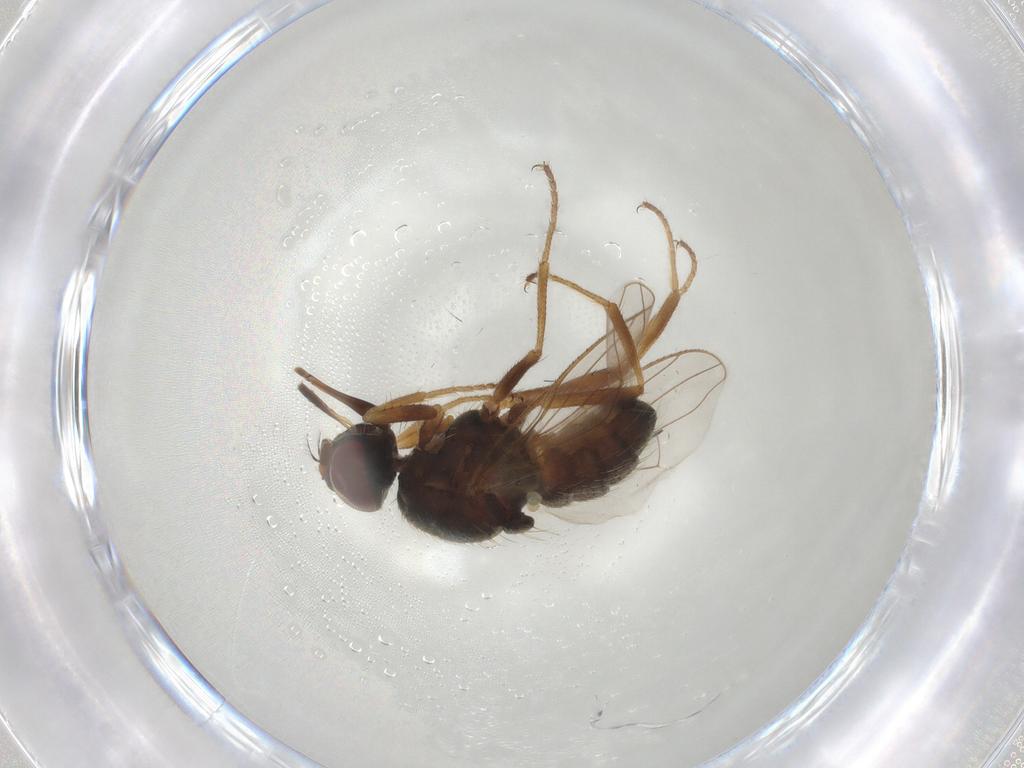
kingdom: Animalia
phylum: Arthropoda
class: Insecta
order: Diptera
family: Muscidae
